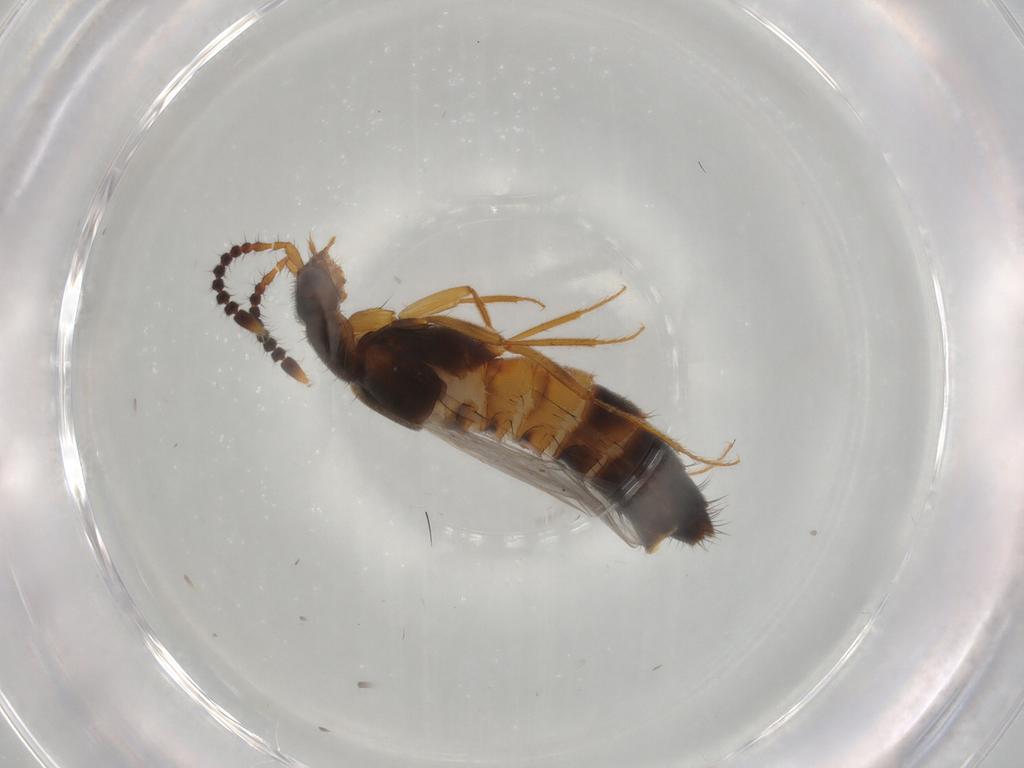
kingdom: Animalia
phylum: Arthropoda
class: Insecta
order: Coleoptera
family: Staphylinidae
